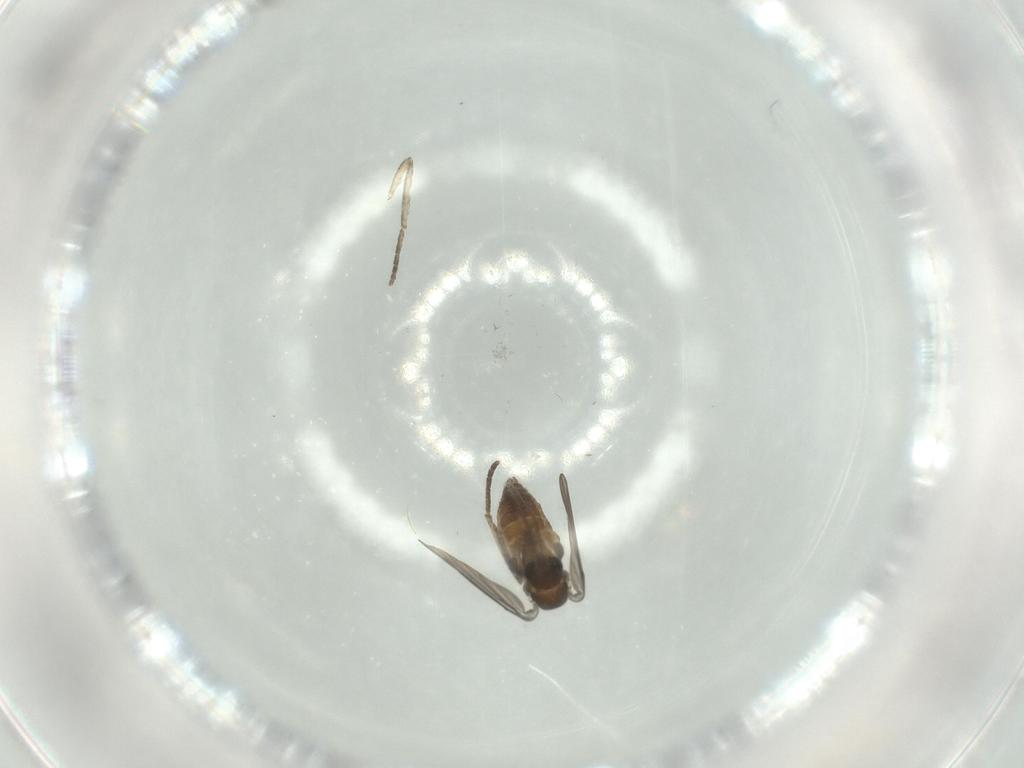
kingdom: Animalia
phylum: Arthropoda
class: Insecta
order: Diptera
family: Psychodidae
